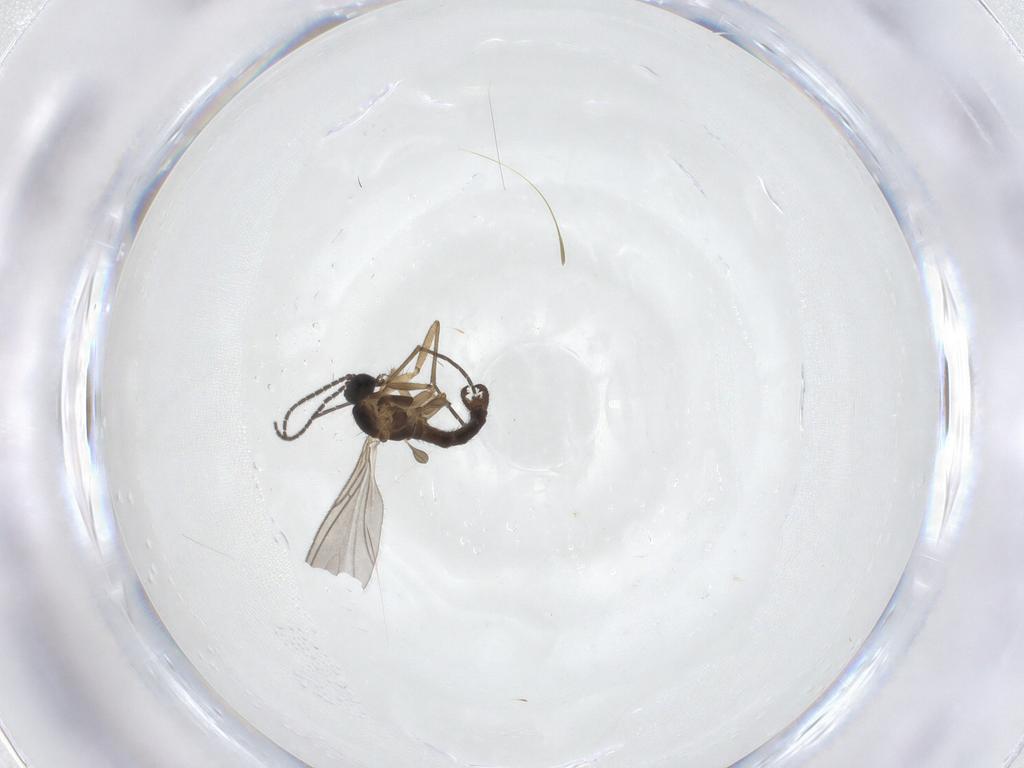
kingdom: Animalia
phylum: Arthropoda
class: Insecta
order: Diptera
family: Sciaridae
